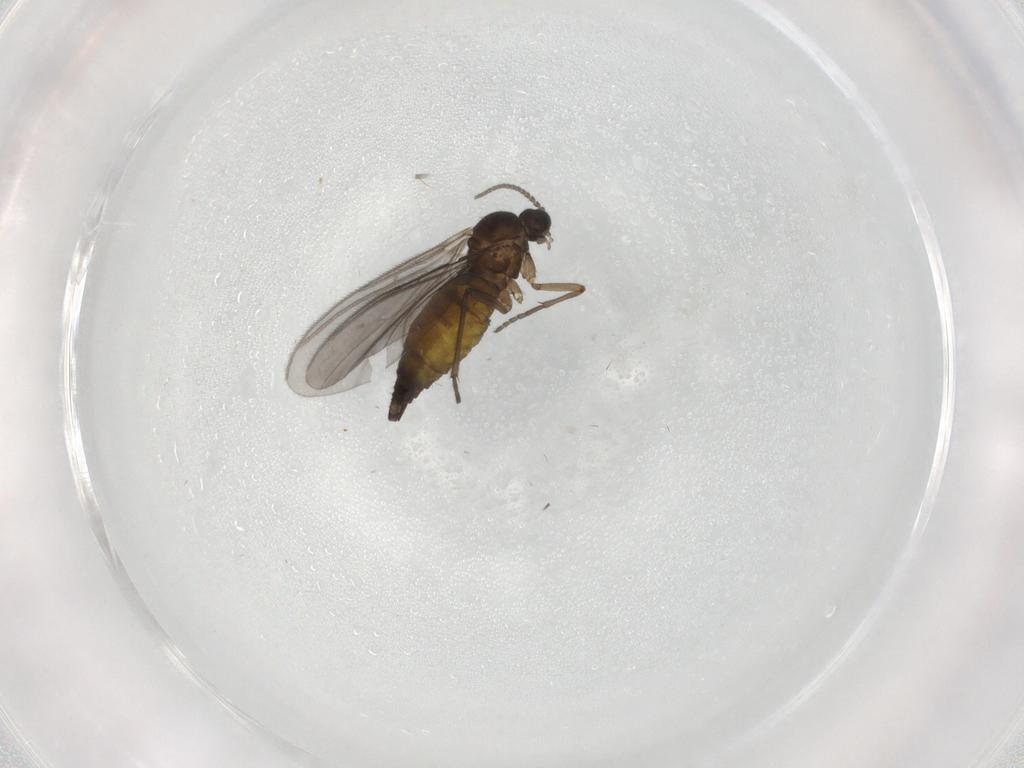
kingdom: Animalia
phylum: Arthropoda
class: Insecta
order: Diptera
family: Sciaridae
